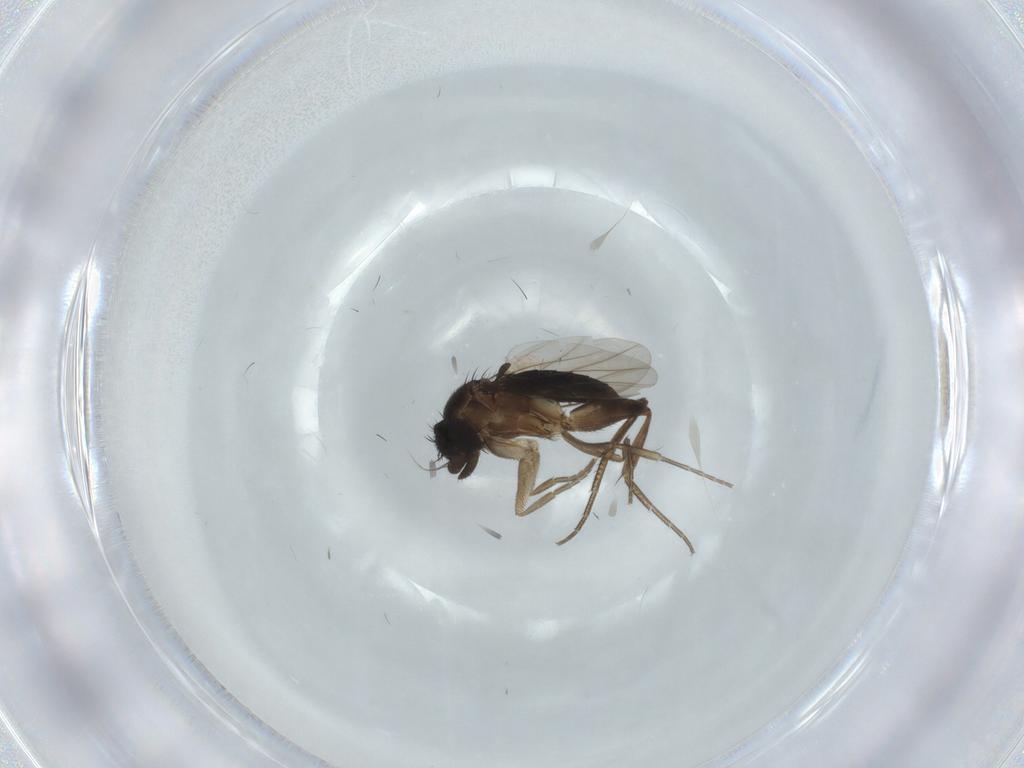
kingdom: Animalia
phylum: Arthropoda
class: Insecta
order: Diptera
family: Phoridae
